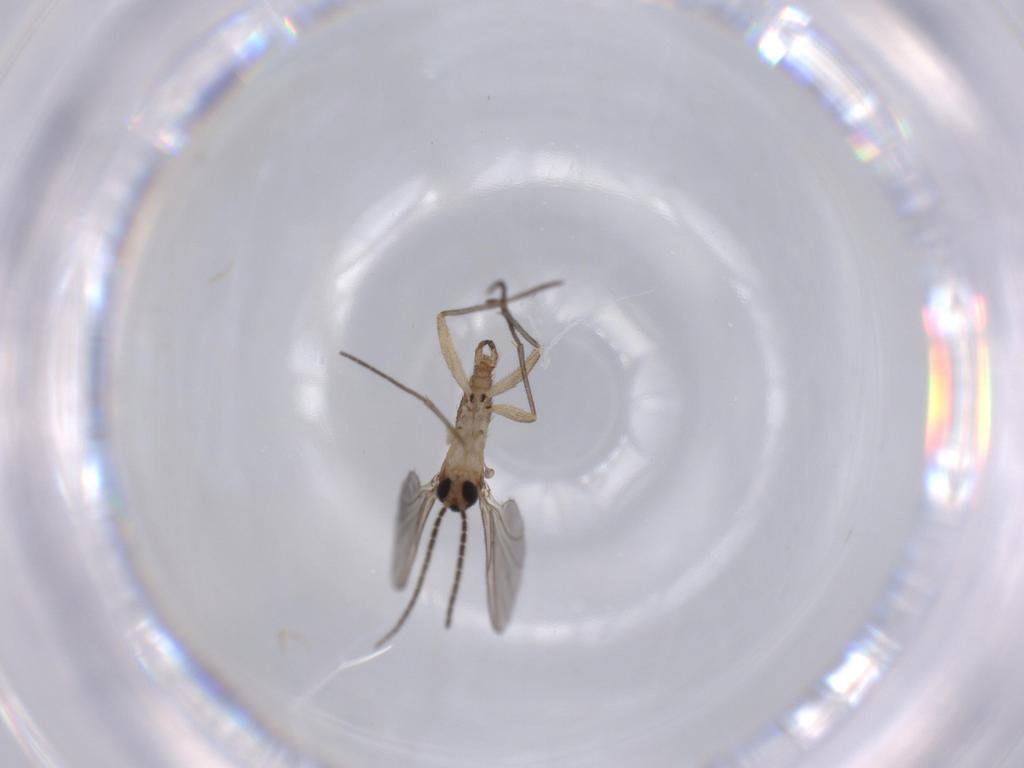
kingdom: Animalia
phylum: Arthropoda
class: Insecta
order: Diptera
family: Sciaridae
